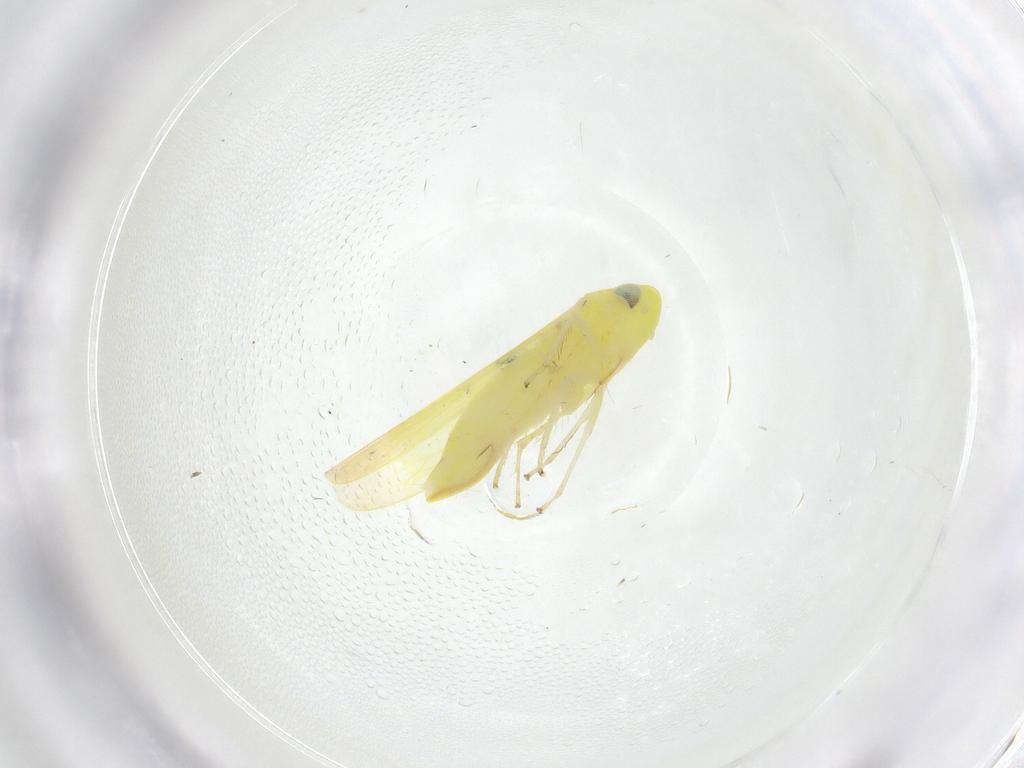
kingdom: Animalia
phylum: Arthropoda
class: Insecta
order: Hemiptera
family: Cicadellidae
